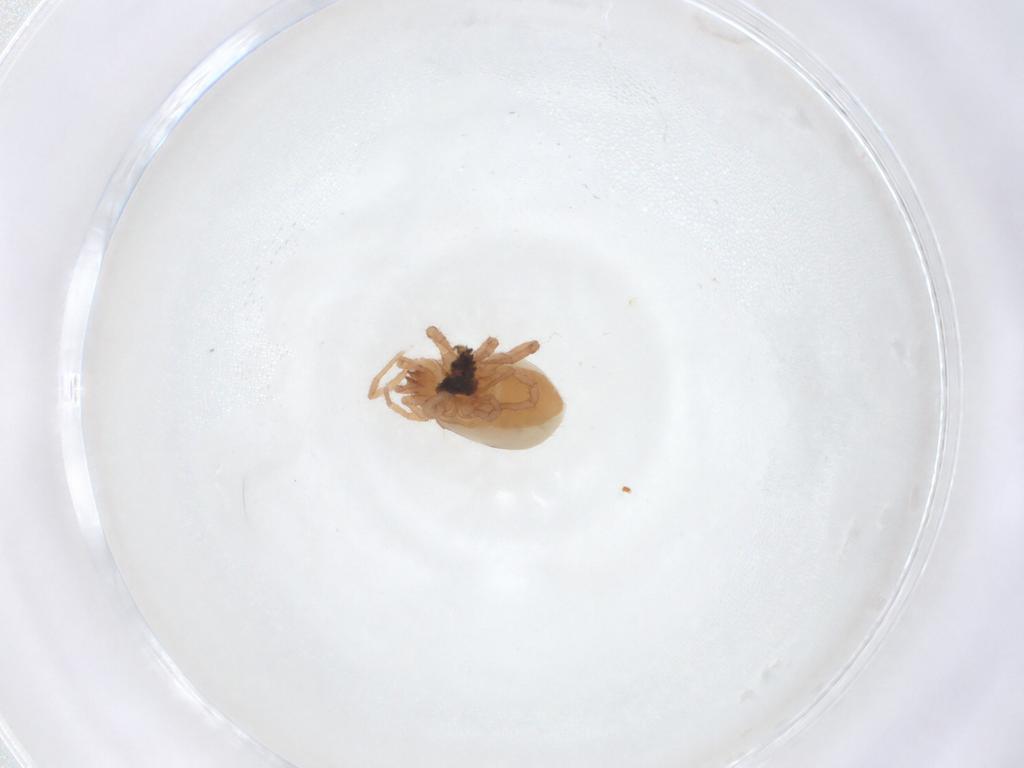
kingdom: Animalia
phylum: Arthropoda
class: Arachnida
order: Mesostigmata
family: Parasitidae
